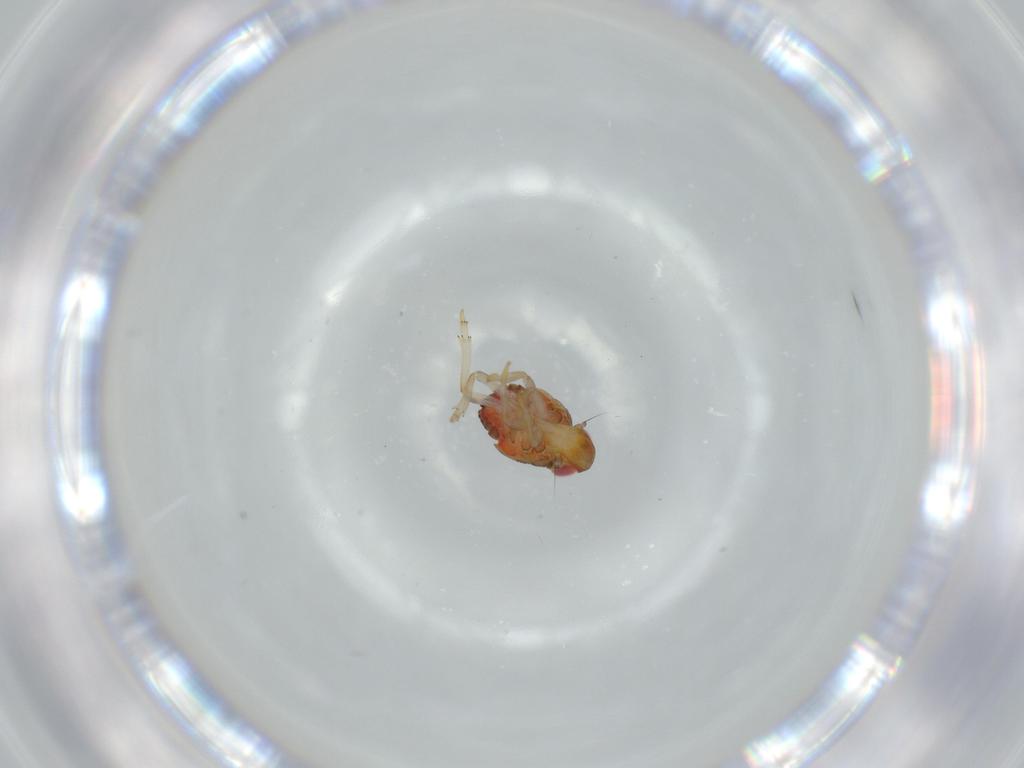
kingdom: Animalia
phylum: Arthropoda
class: Insecta
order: Hemiptera
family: Issidae
